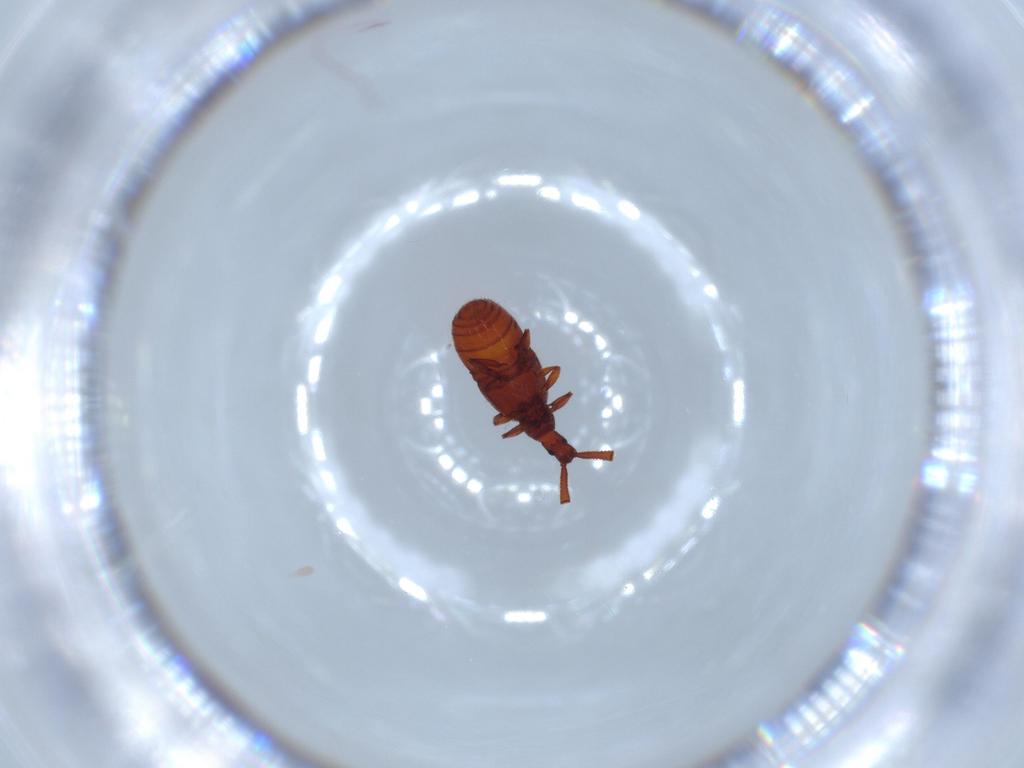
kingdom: Animalia
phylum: Arthropoda
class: Insecta
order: Coleoptera
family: Staphylinidae
